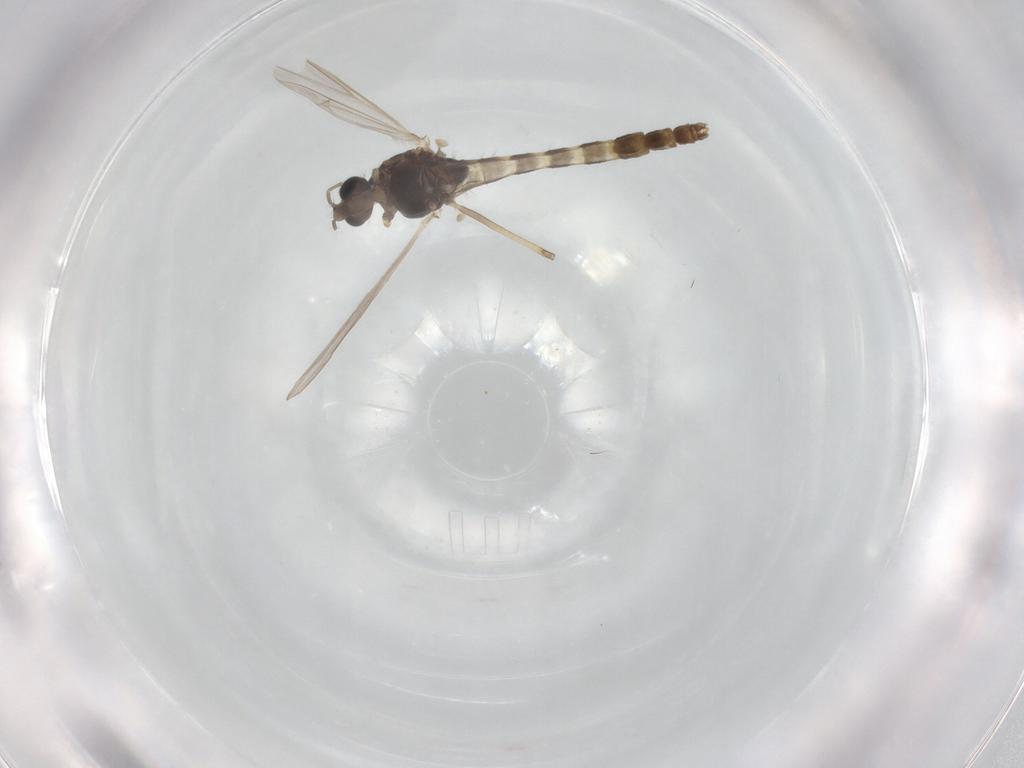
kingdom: Animalia
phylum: Arthropoda
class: Insecta
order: Diptera
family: Chironomidae
